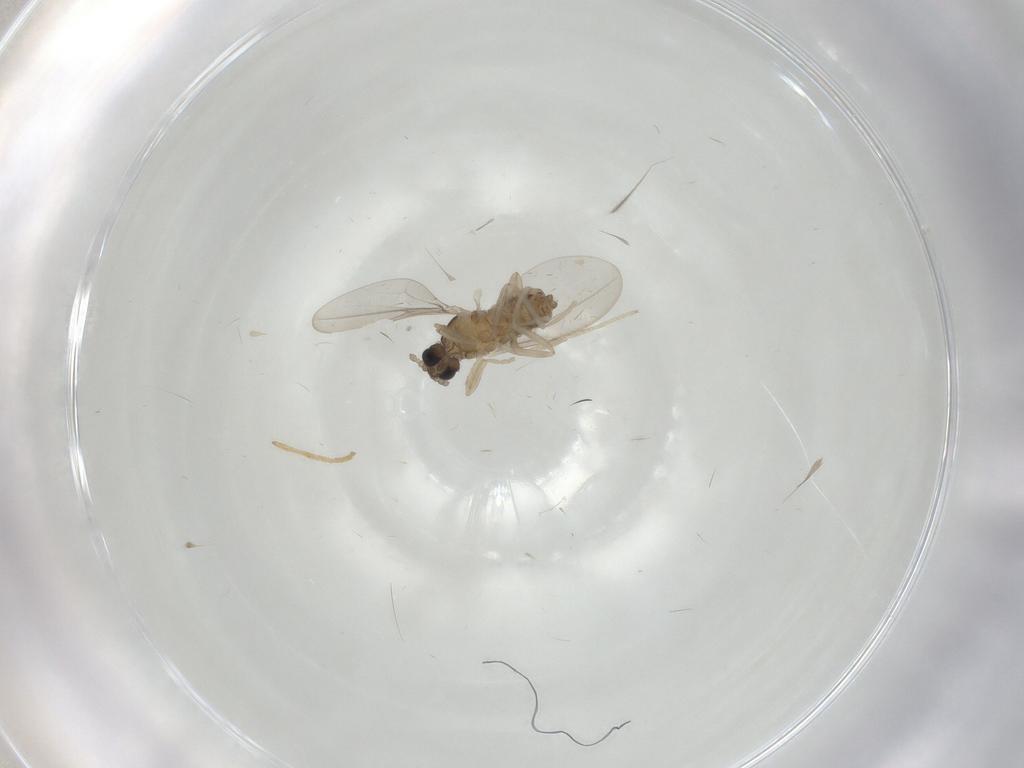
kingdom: Animalia
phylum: Arthropoda
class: Insecta
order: Diptera
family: Cecidomyiidae
